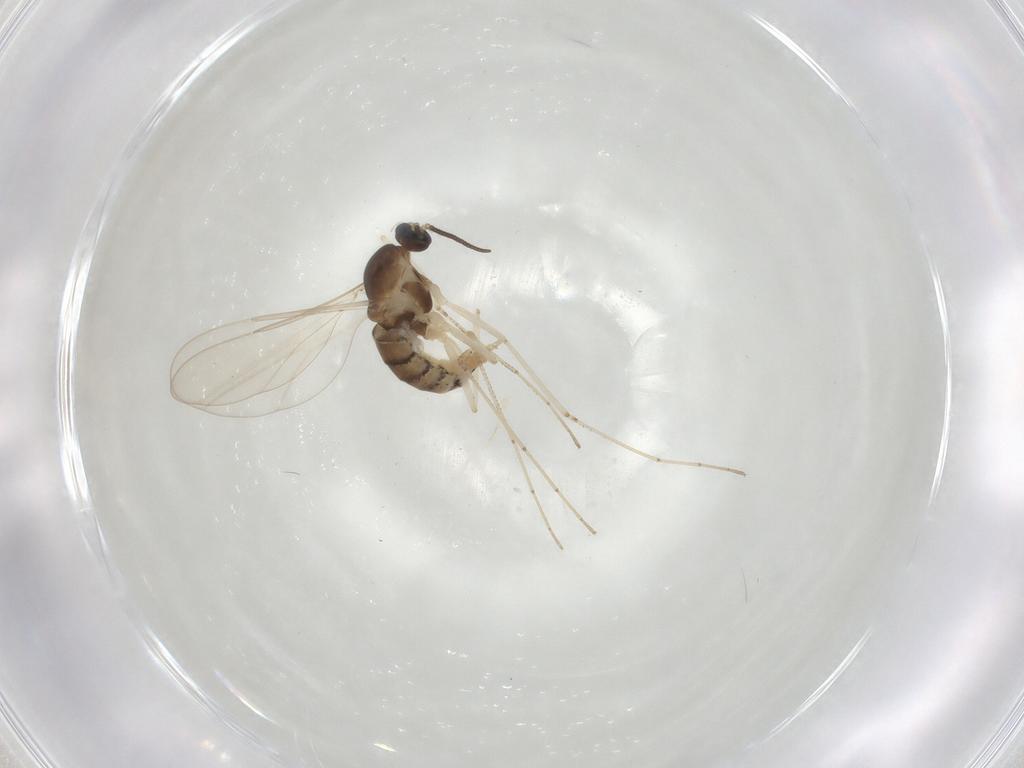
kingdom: Animalia
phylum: Arthropoda
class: Insecta
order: Diptera
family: Cecidomyiidae
